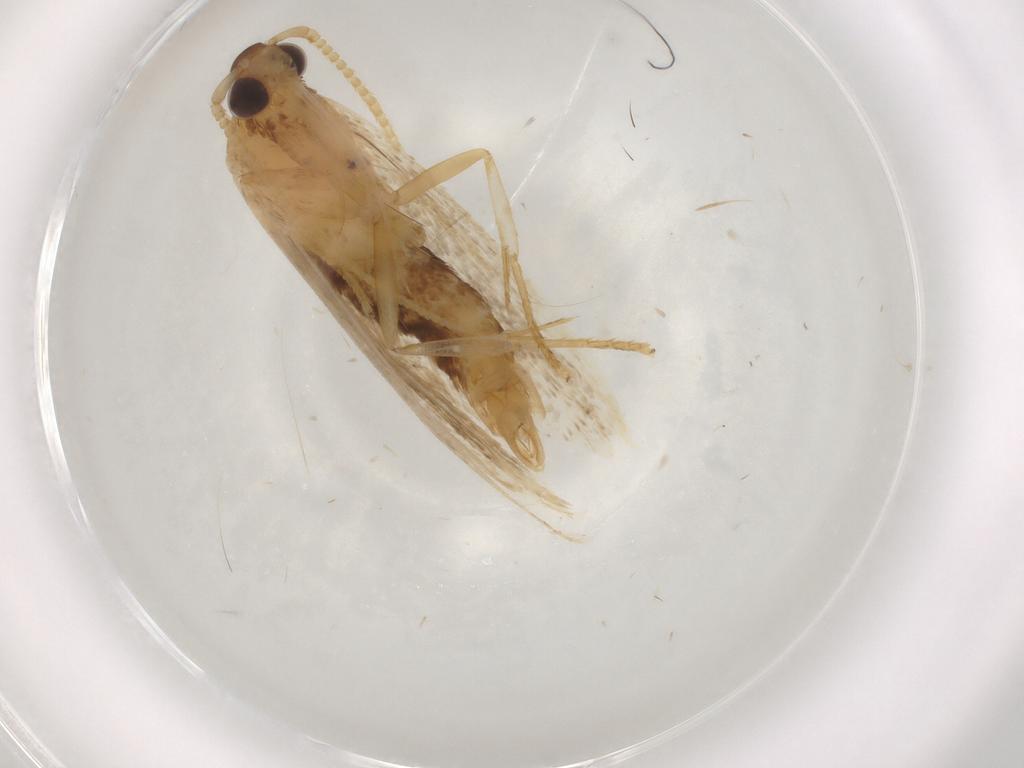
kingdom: Animalia
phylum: Arthropoda
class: Insecta
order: Lepidoptera
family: Lecithoceridae
